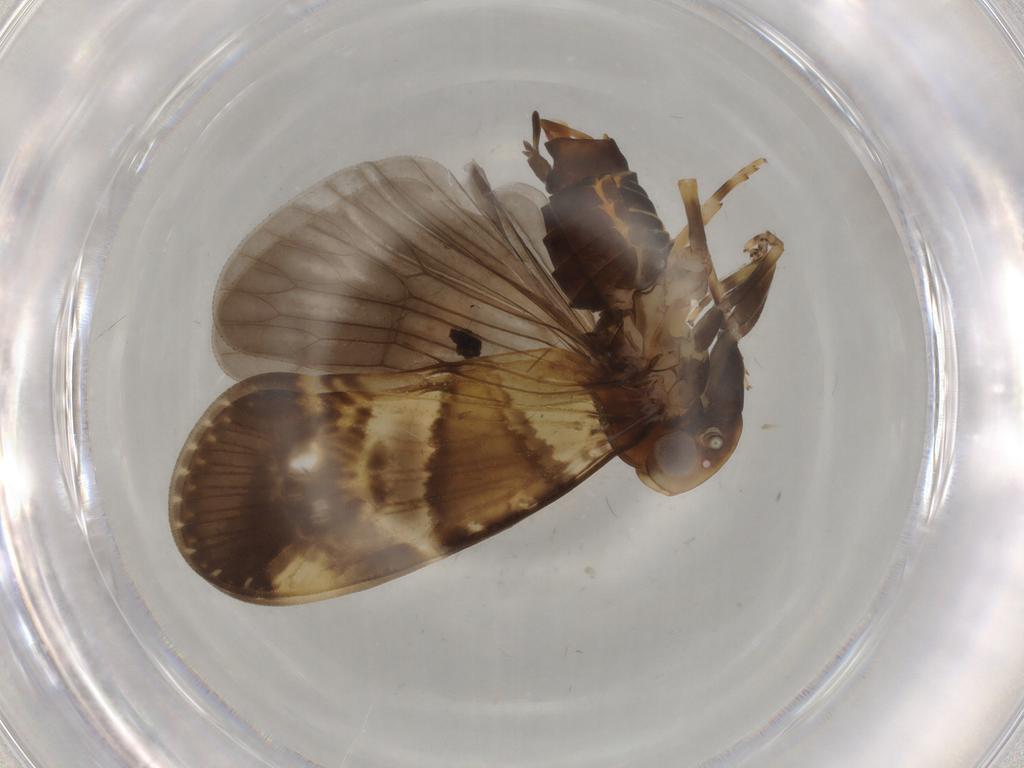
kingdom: Animalia
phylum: Arthropoda
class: Insecta
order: Hemiptera
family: Cixiidae
